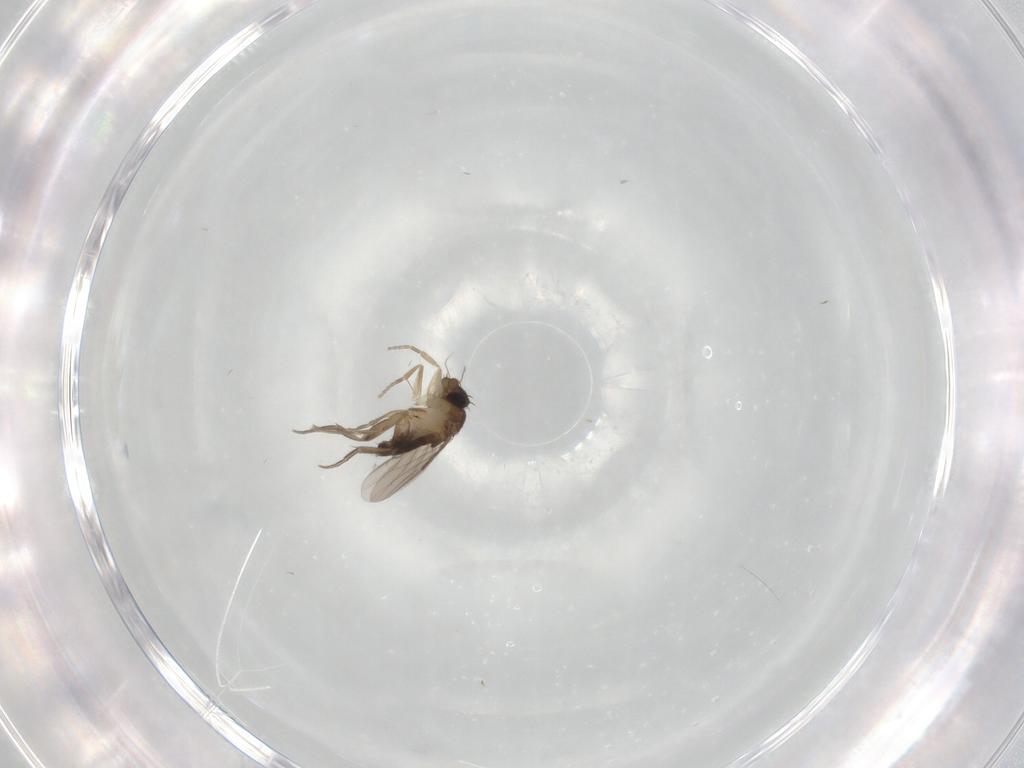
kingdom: Animalia
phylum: Arthropoda
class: Insecta
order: Diptera
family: Phoridae
